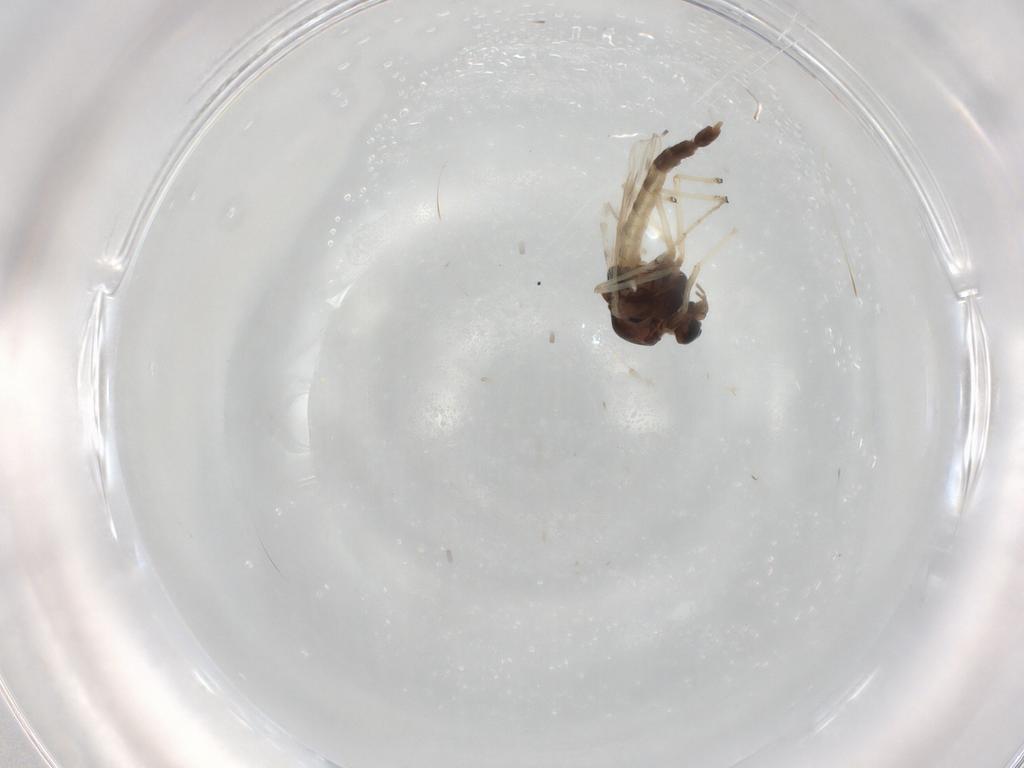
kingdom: Animalia
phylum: Arthropoda
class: Insecta
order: Diptera
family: Chironomidae
